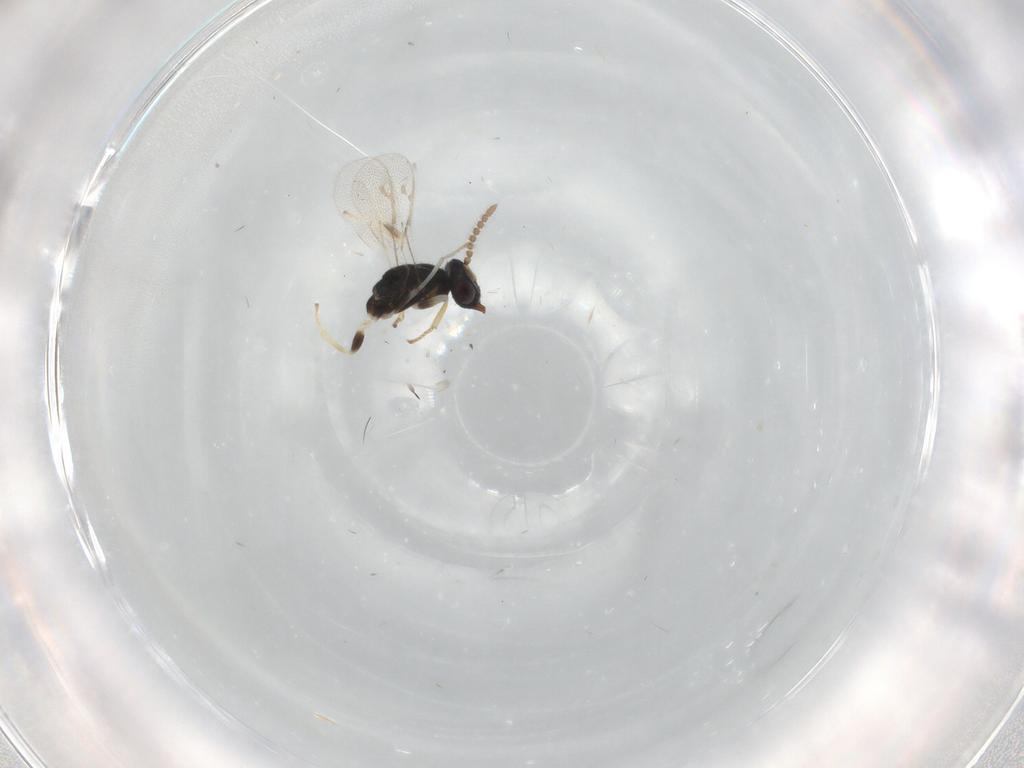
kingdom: Animalia
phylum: Arthropoda
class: Insecta
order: Hymenoptera
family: Pirenidae
